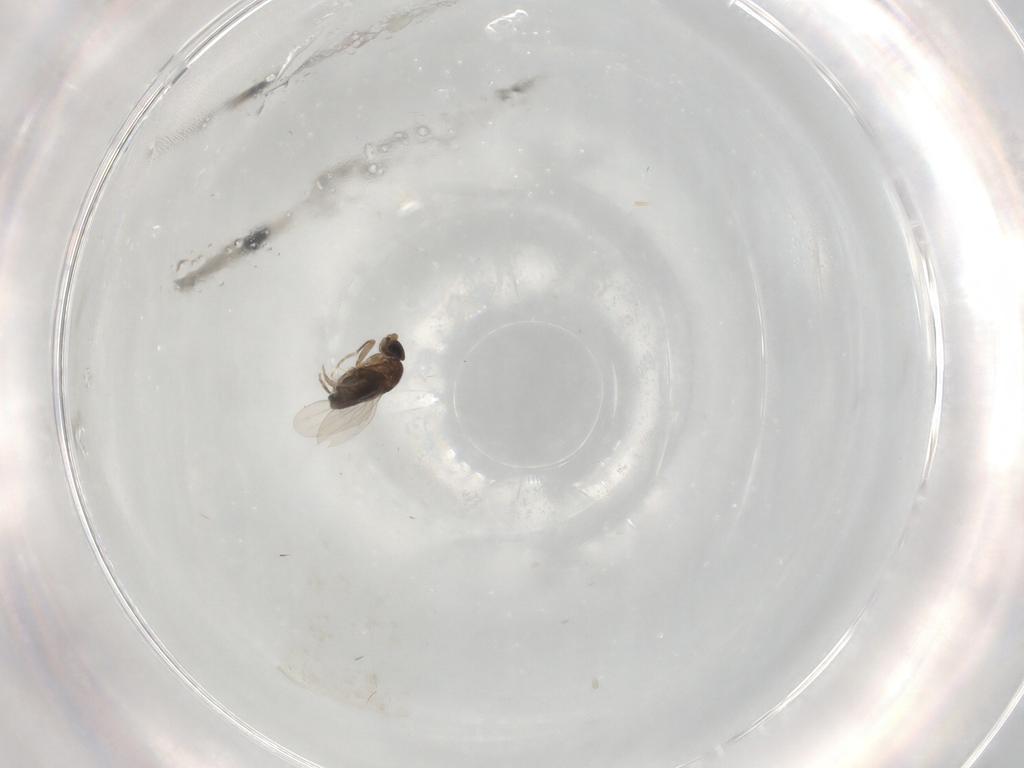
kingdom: Animalia
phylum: Arthropoda
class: Insecta
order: Diptera
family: Phoridae
